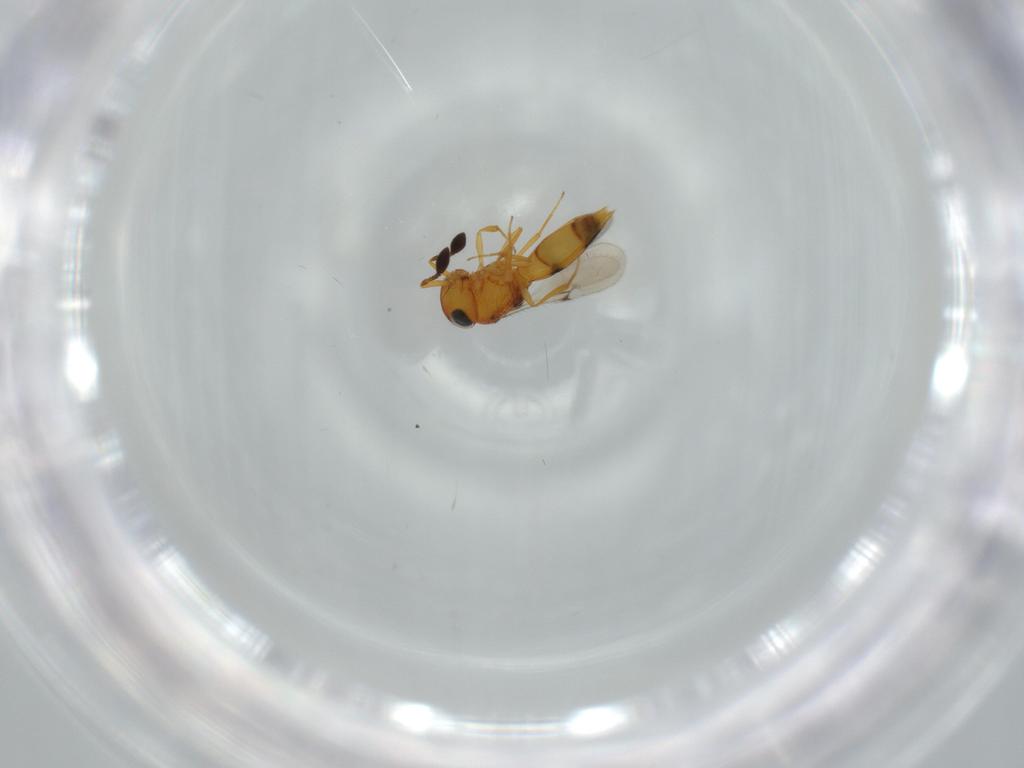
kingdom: Animalia
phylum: Arthropoda
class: Insecta
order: Hymenoptera
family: Scelionidae
